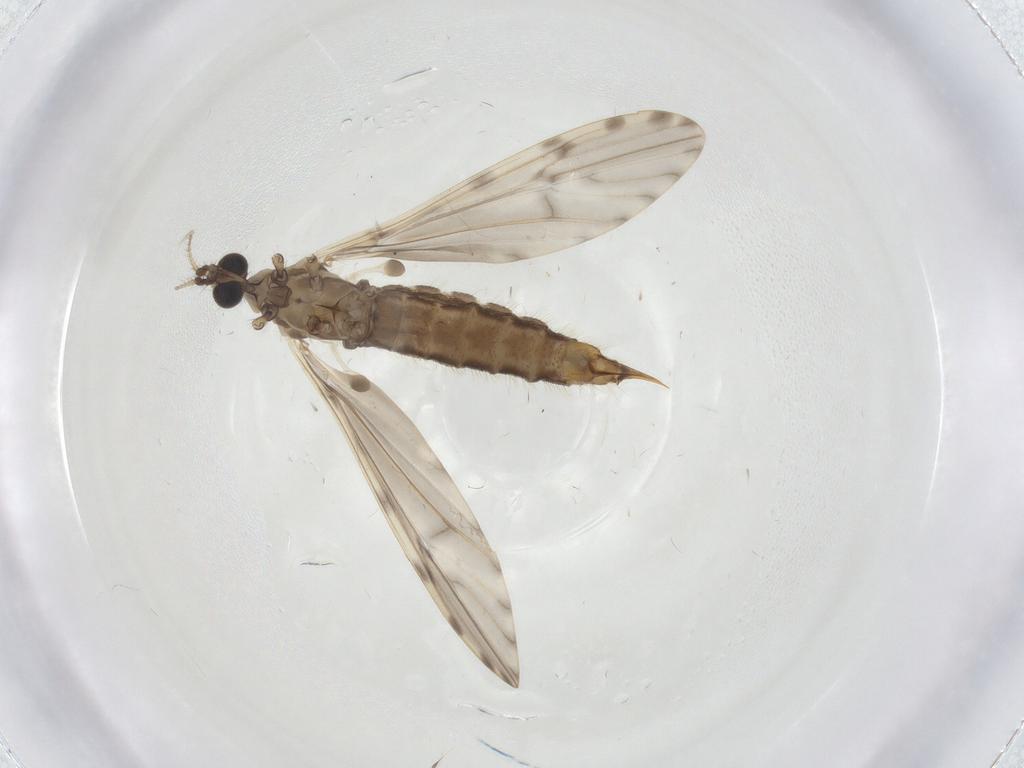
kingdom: Animalia
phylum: Arthropoda
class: Insecta
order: Diptera
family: Limoniidae
